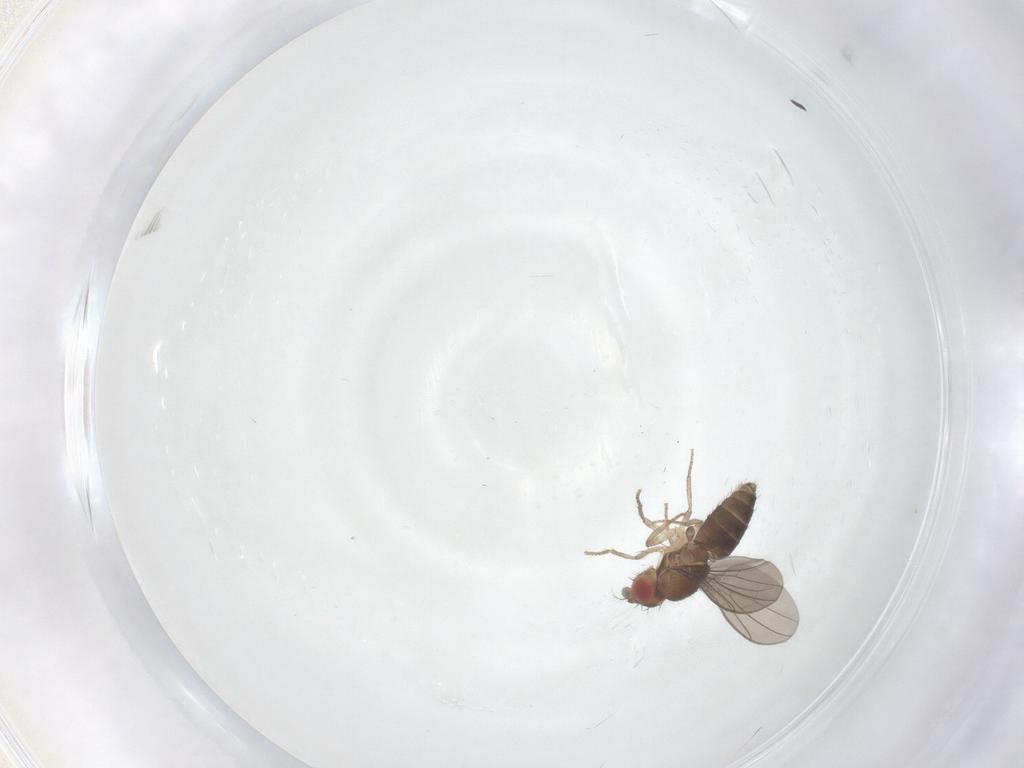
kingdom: Animalia
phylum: Arthropoda
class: Insecta
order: Diptera
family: Drosophilidae
